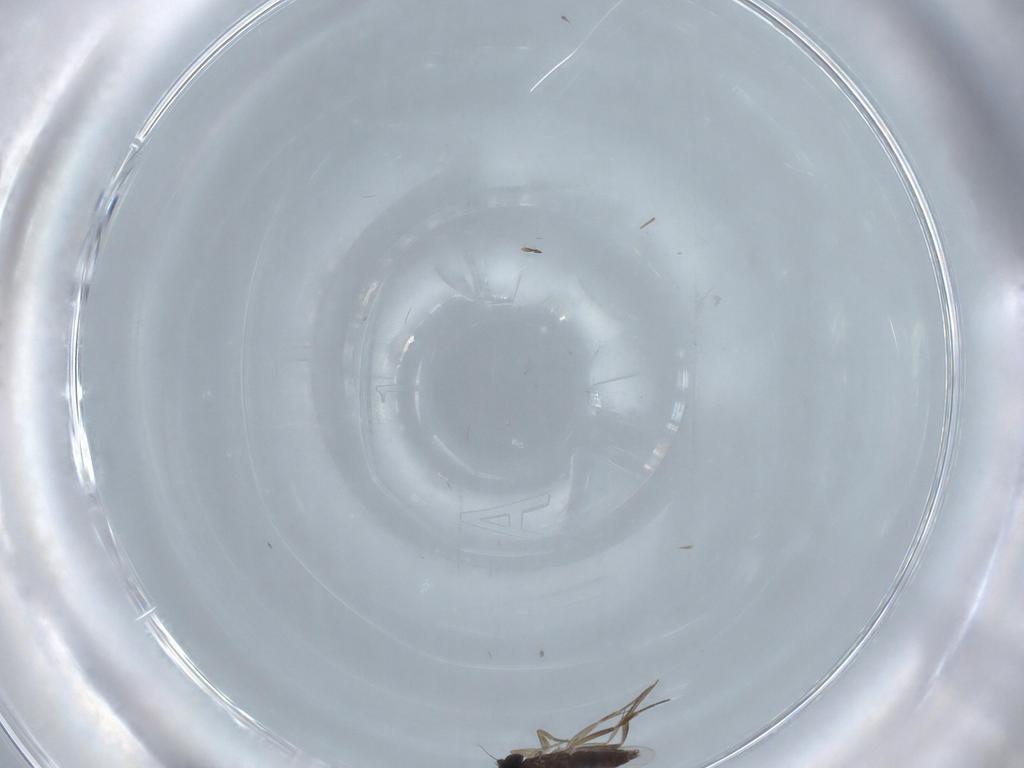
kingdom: Animalia
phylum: Arthropoda
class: Insecta
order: Diptera
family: Phoridae
